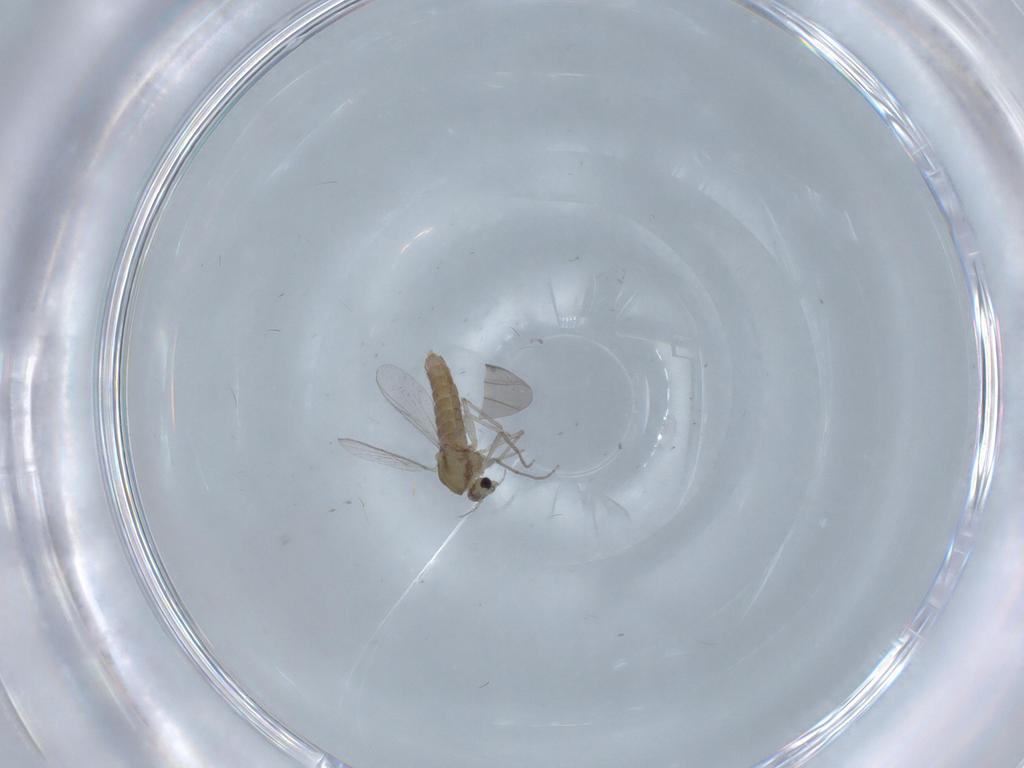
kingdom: Animalia
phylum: Arthropoda
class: Insecta
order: Diptera
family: Chironomidae
